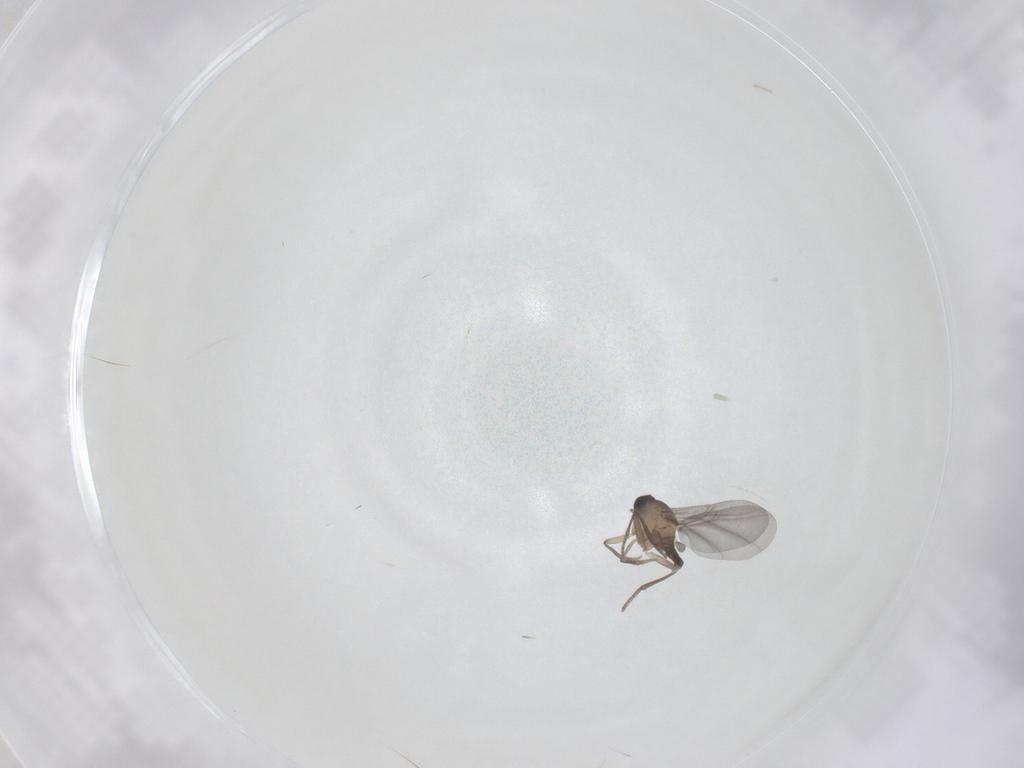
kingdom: Animalia
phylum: Arthropoda
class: Insecta
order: Diptera
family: Phoridae
